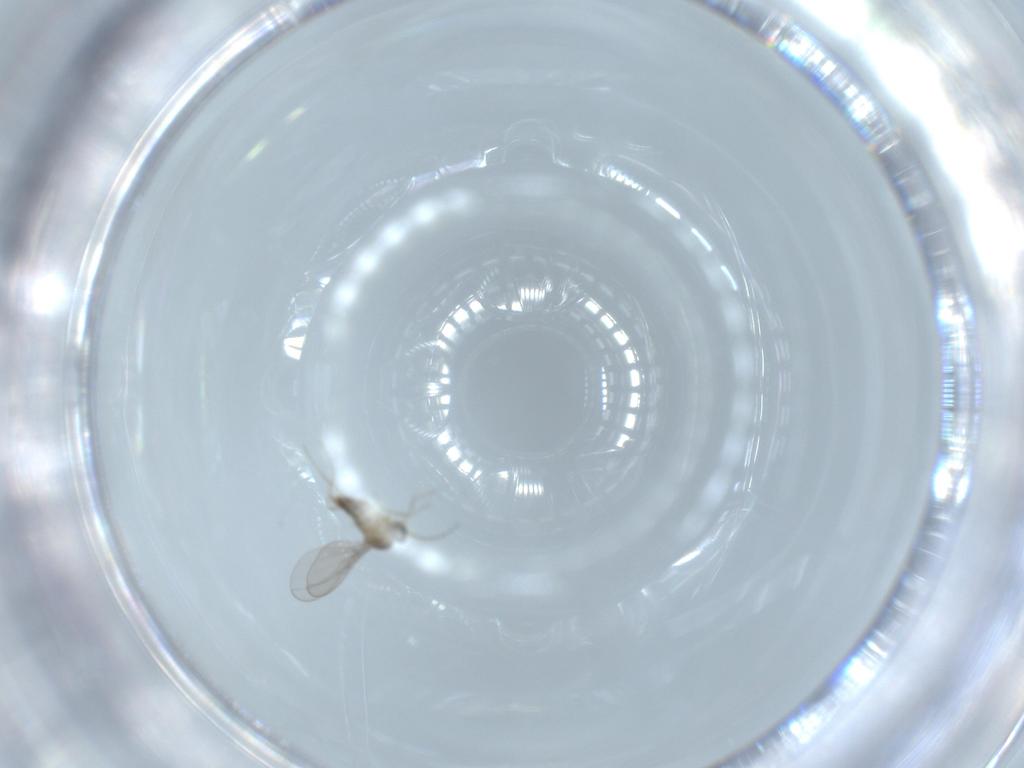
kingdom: Animalia
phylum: Arthropoda
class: Insecta
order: Diptera
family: Cecidomyiidae
